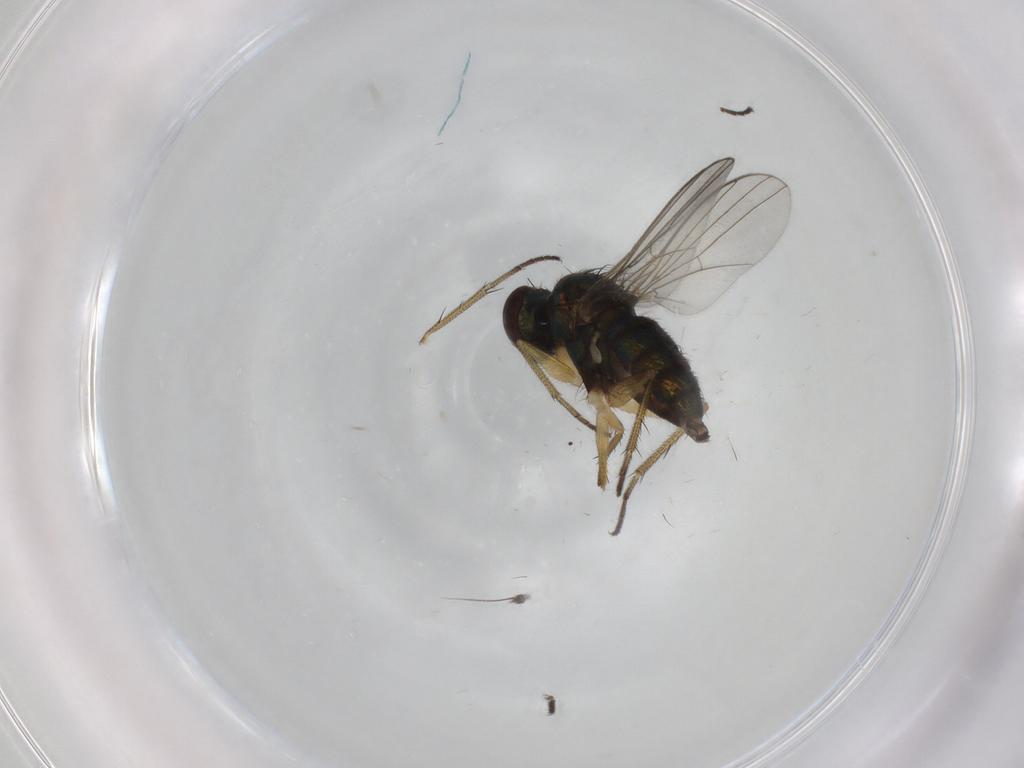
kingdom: Animalia
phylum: Arthropoda
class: Insecta
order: Diptera
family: Dolichopodidae
